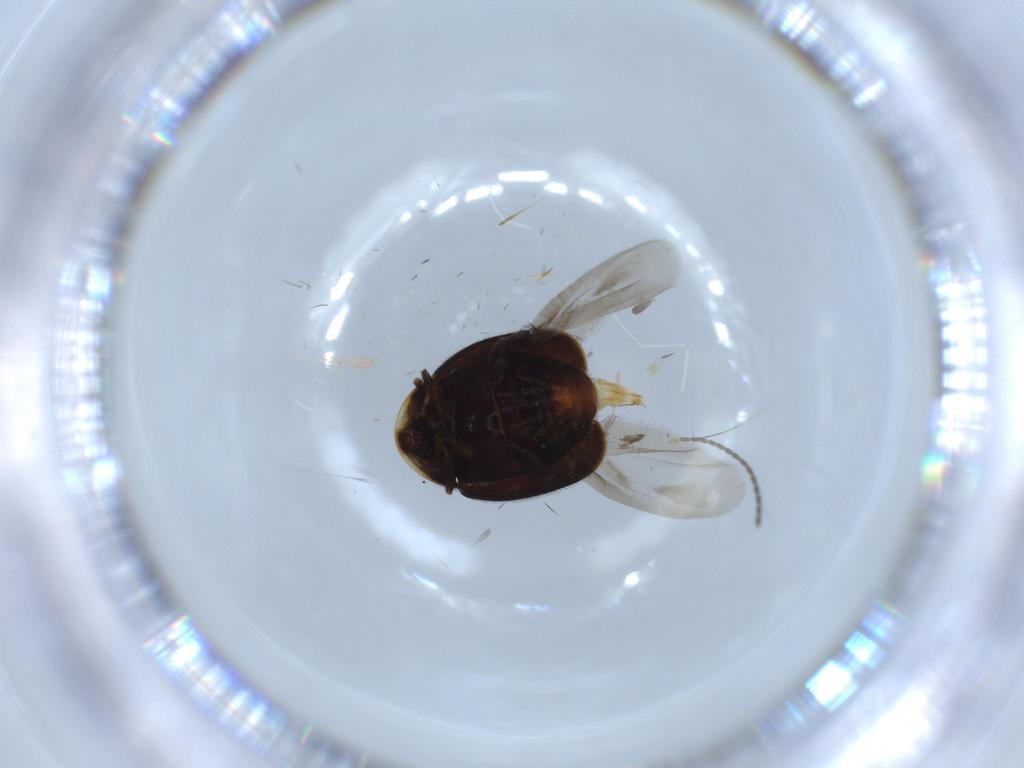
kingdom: Animalia
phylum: Arthropoda
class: Insecta
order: Coleoptera
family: Corylophidae
